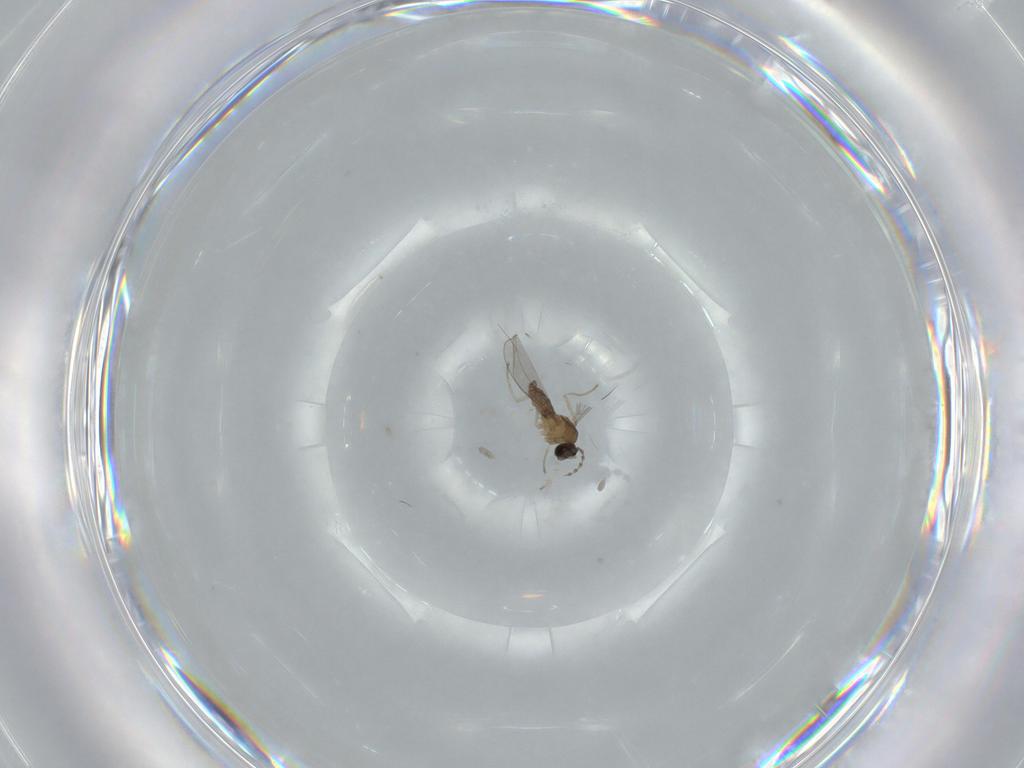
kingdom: Animalia
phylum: Arthropoda
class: Insecta
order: Diptera
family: Cecidomyiidae
